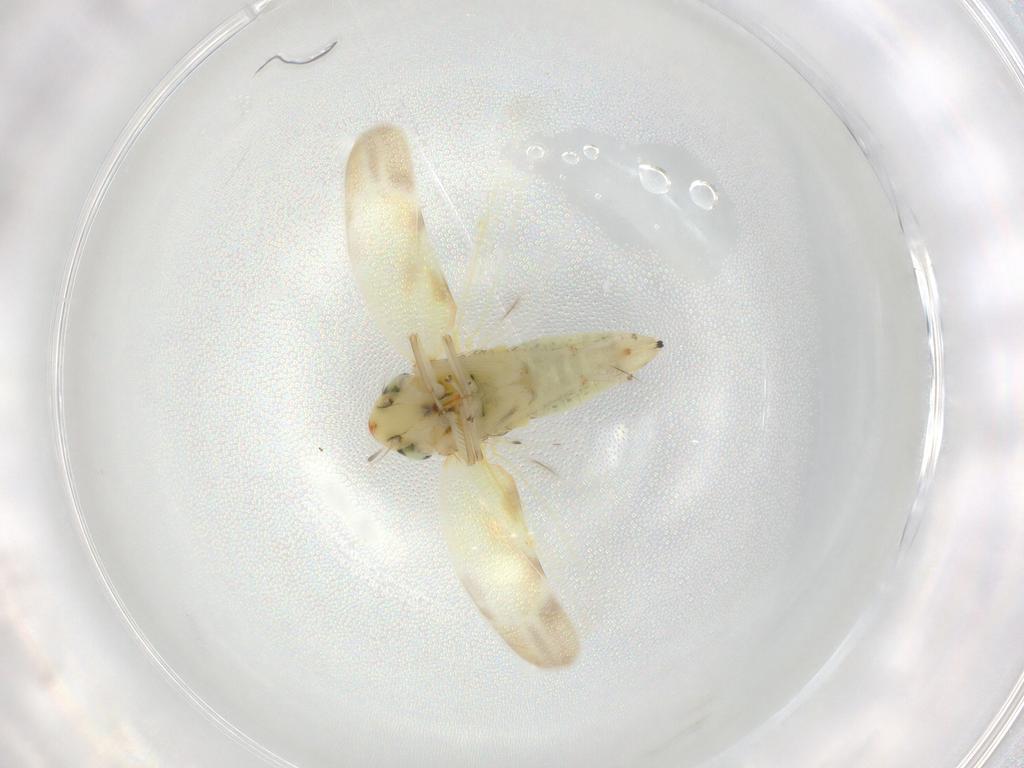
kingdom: Animalia
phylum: Arthropoda
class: Insecta
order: Hemiptera
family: Cicadellidae
